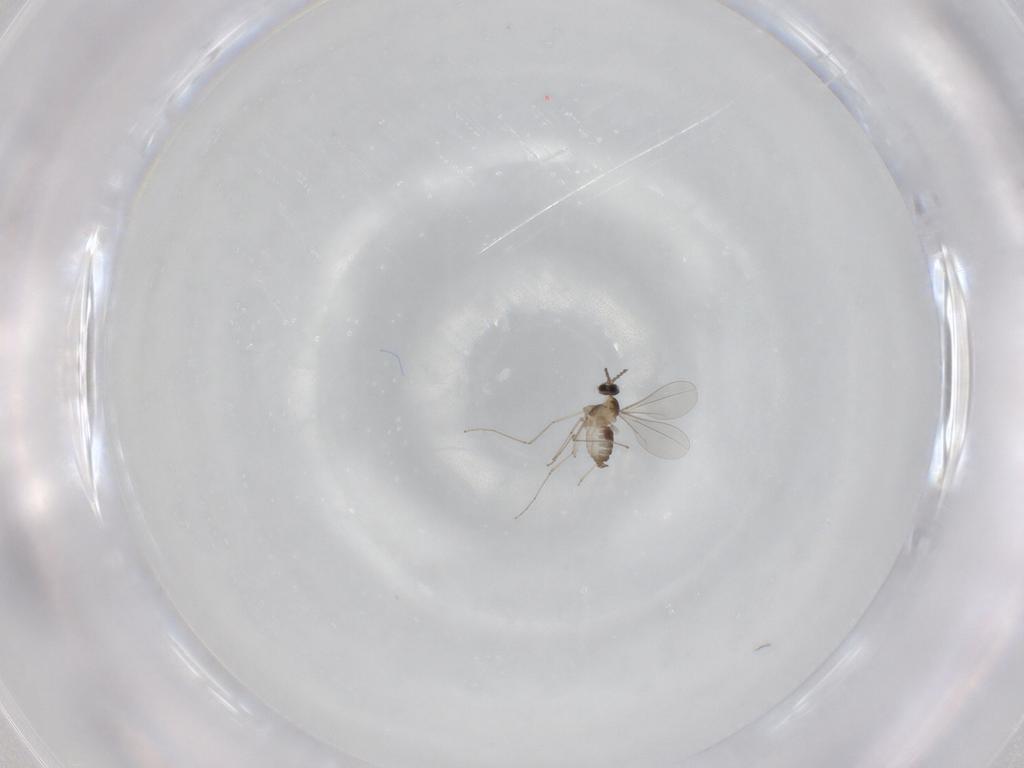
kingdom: Animalia
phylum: Arthropoda
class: Insecta
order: Diptera
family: Cecidomyiidae
